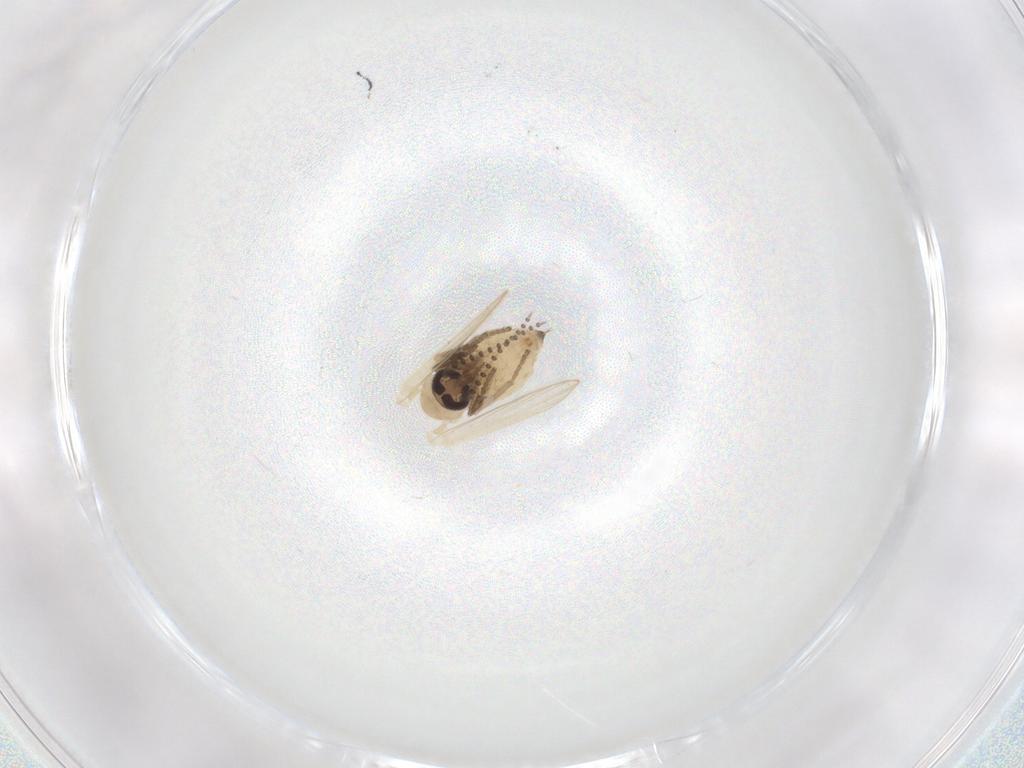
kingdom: Animalia
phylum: Arthropoda
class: Insecta
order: Diptera
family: Psychodidae
